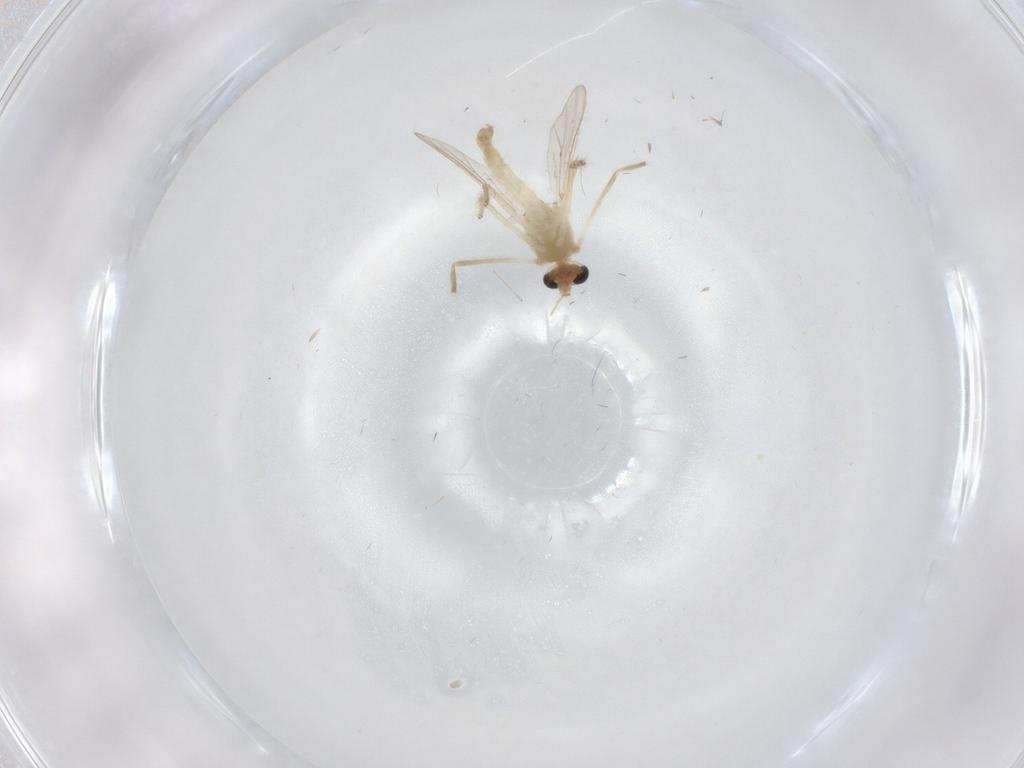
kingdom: Animalia
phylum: Arthropoda
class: Insecta
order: Diptera
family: Chironomidae
